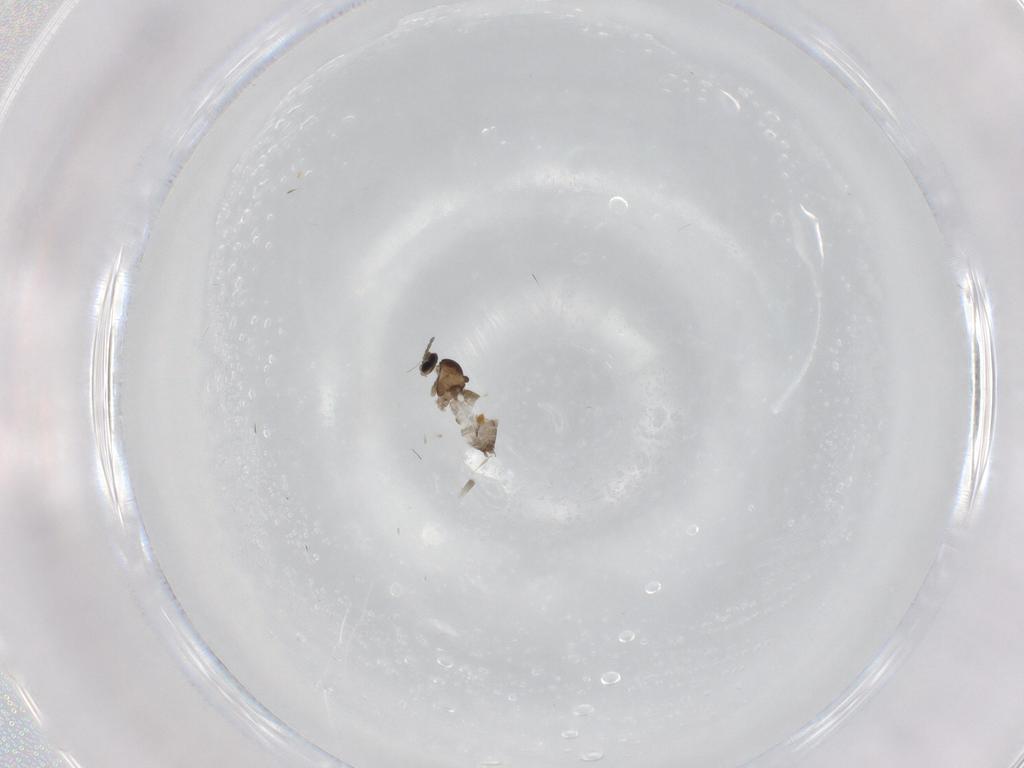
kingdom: Animalia
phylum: Arthropoda
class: Insecta
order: Diptera
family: Cecidomyiidae
